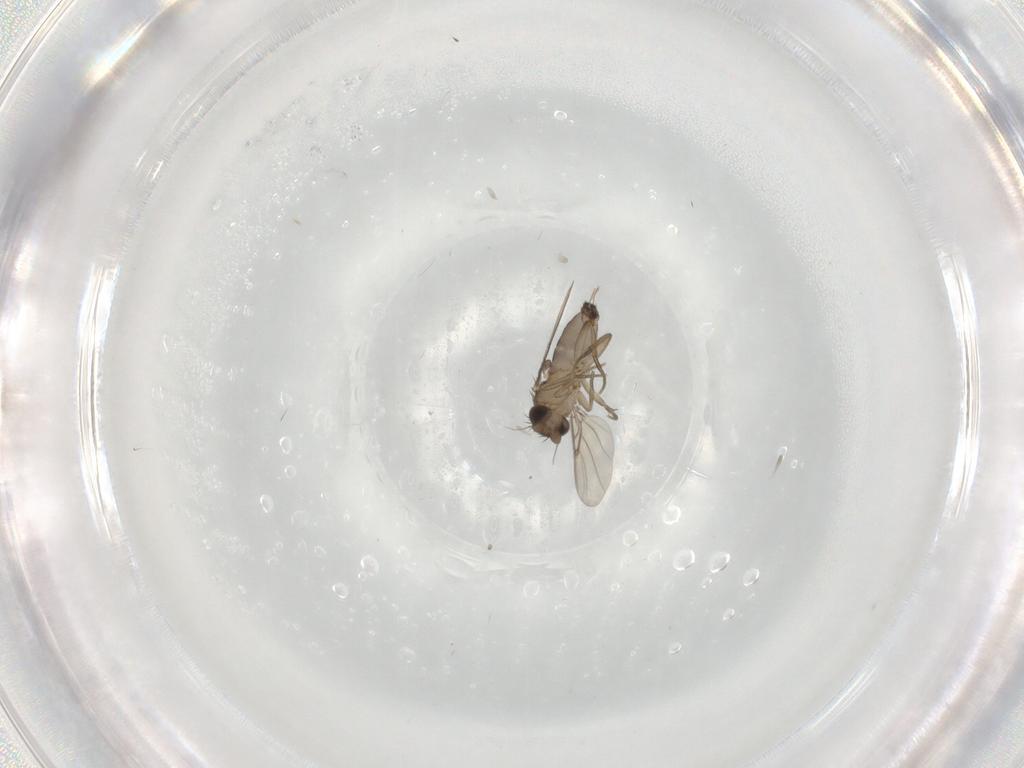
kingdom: Animalia
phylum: Arthropoda
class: Insecta
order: Diptera
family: Phoridae
